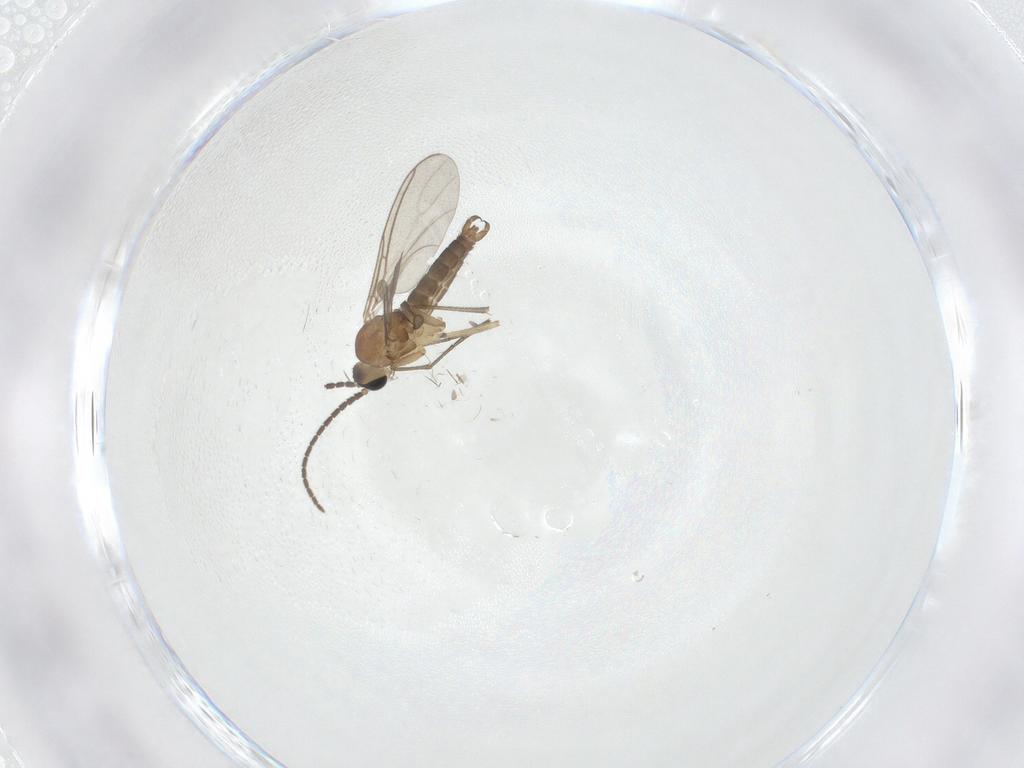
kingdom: Animalia
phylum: Arthropoda
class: Insecta
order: Diptera
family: Sciaridae
